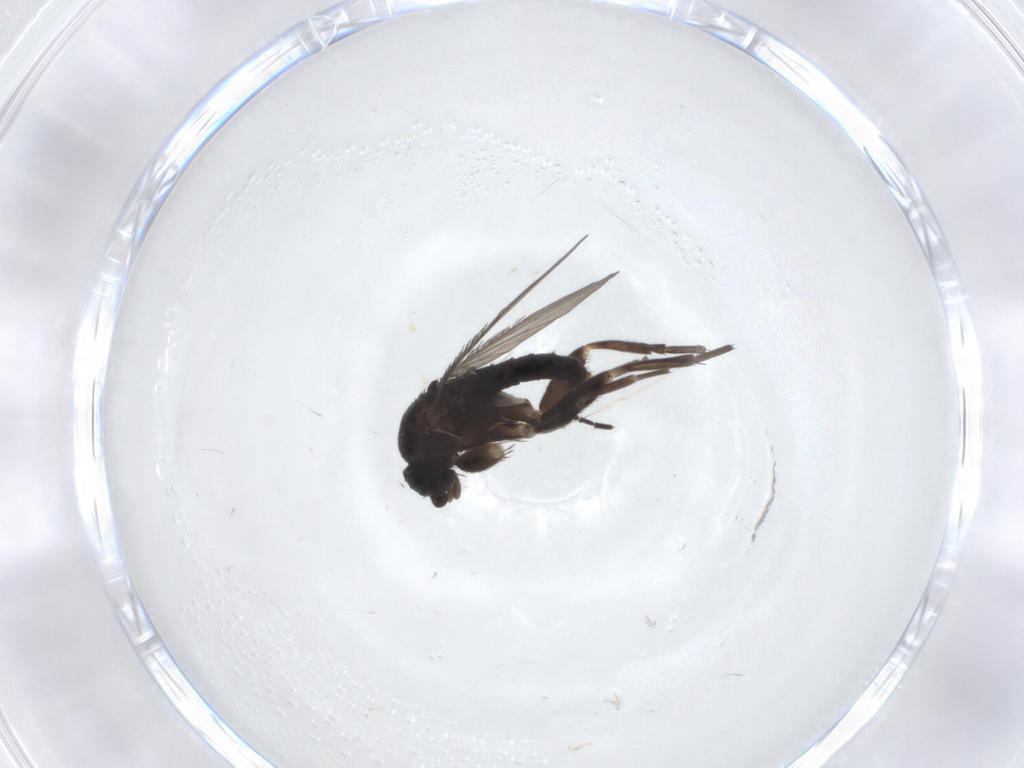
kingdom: Animalia
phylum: Arthropoda
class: Insecta
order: Diptera
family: Phoridae
